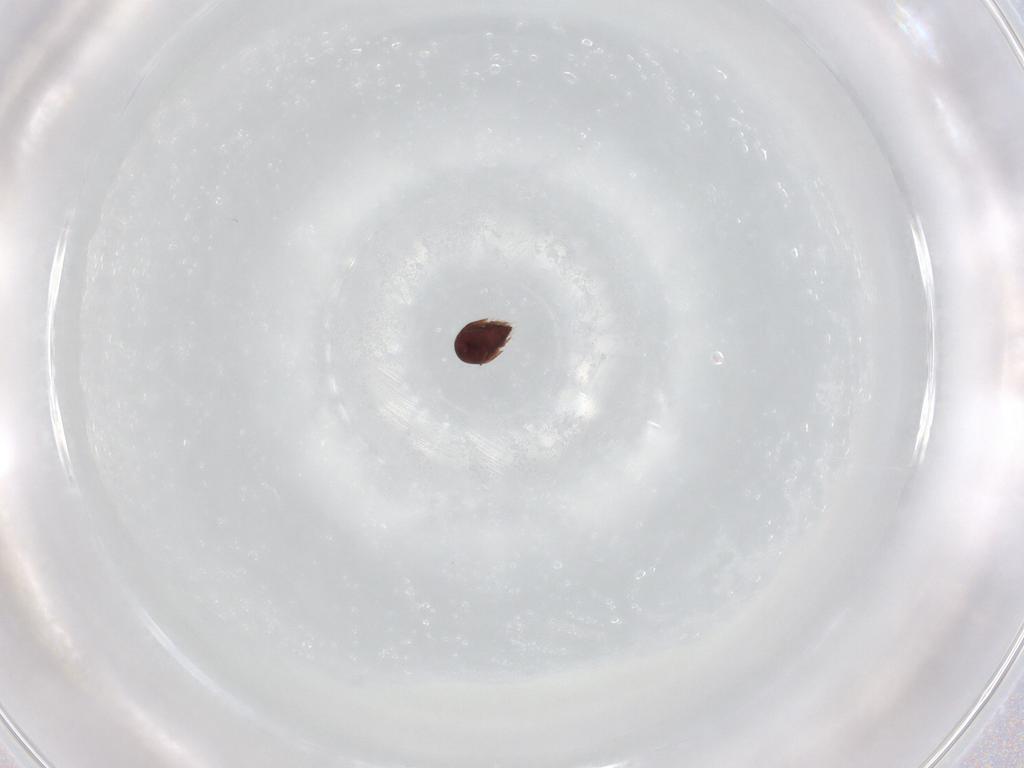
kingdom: Animalia
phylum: Arthropoda
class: Arachnida
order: Sarcoptiformes
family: Oribatellidae
